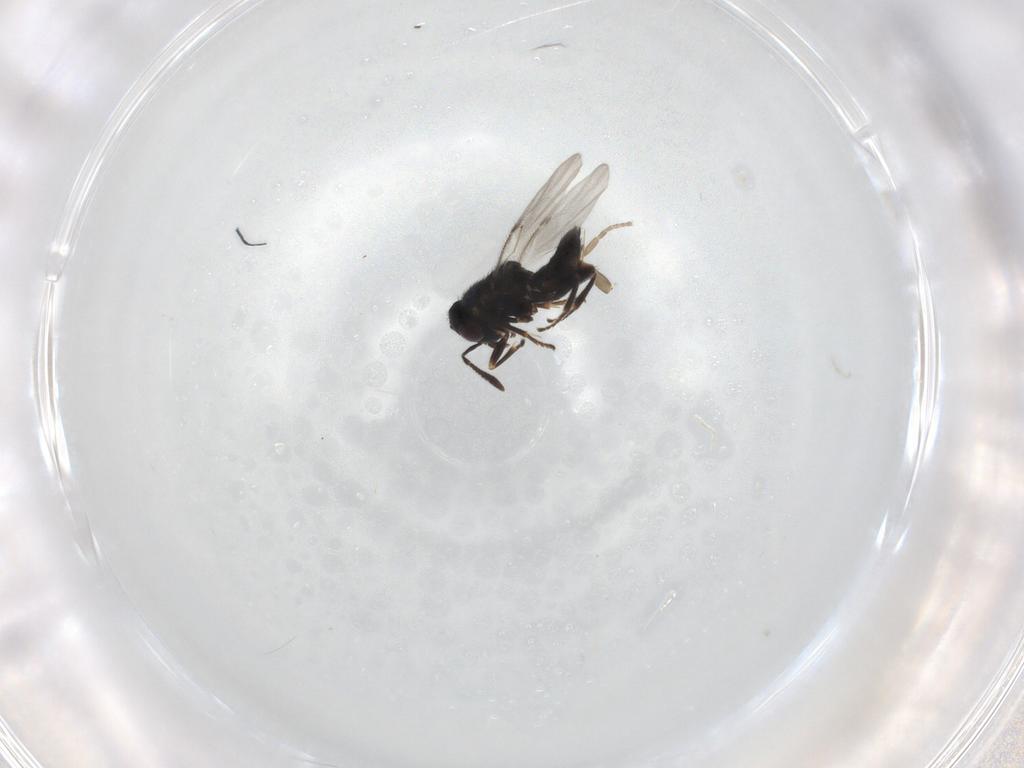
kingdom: Animalia
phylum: Arthropoda
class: Insecta
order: Hymenoptera
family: Encyrtidae
